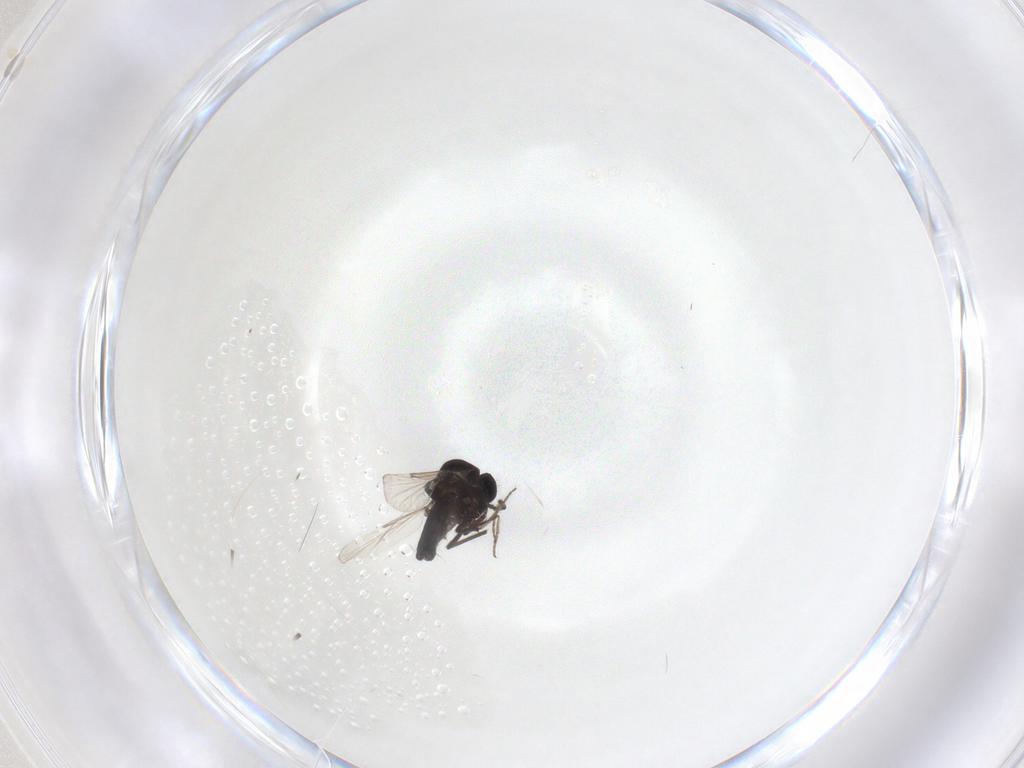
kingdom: Animalia
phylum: Arthropoda
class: Insecta
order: Diptera
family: Ceratopogonidae
